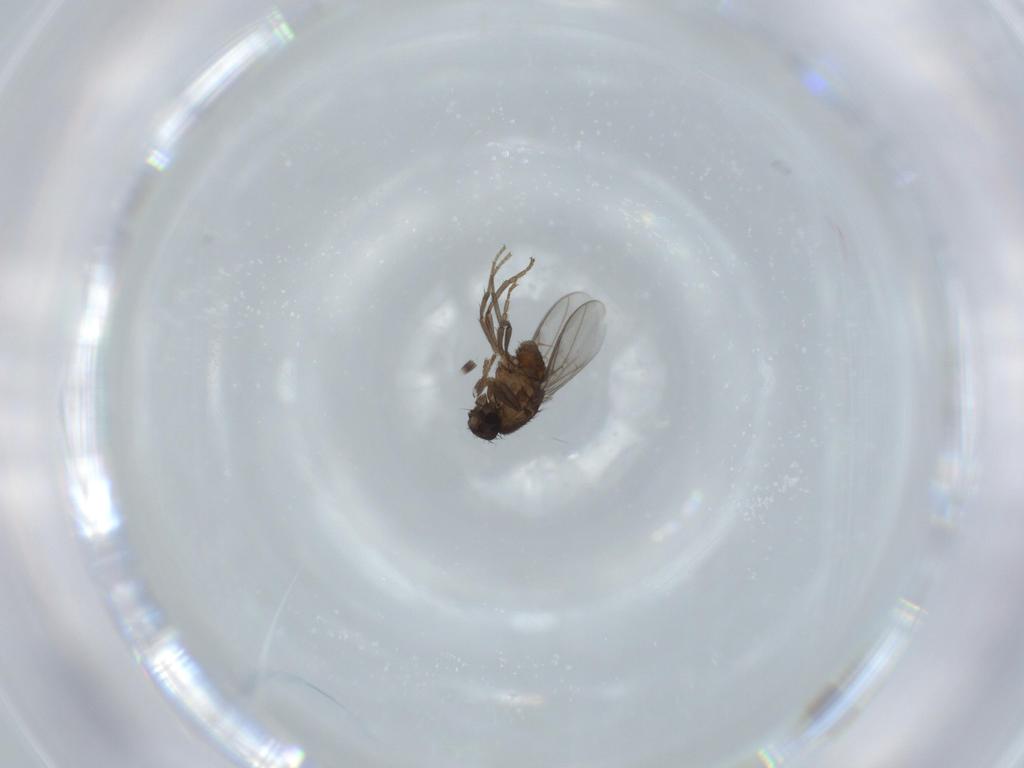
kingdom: Animalia
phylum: Arthropoda
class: Insecta
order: Diptera
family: Cecidomyiidae
